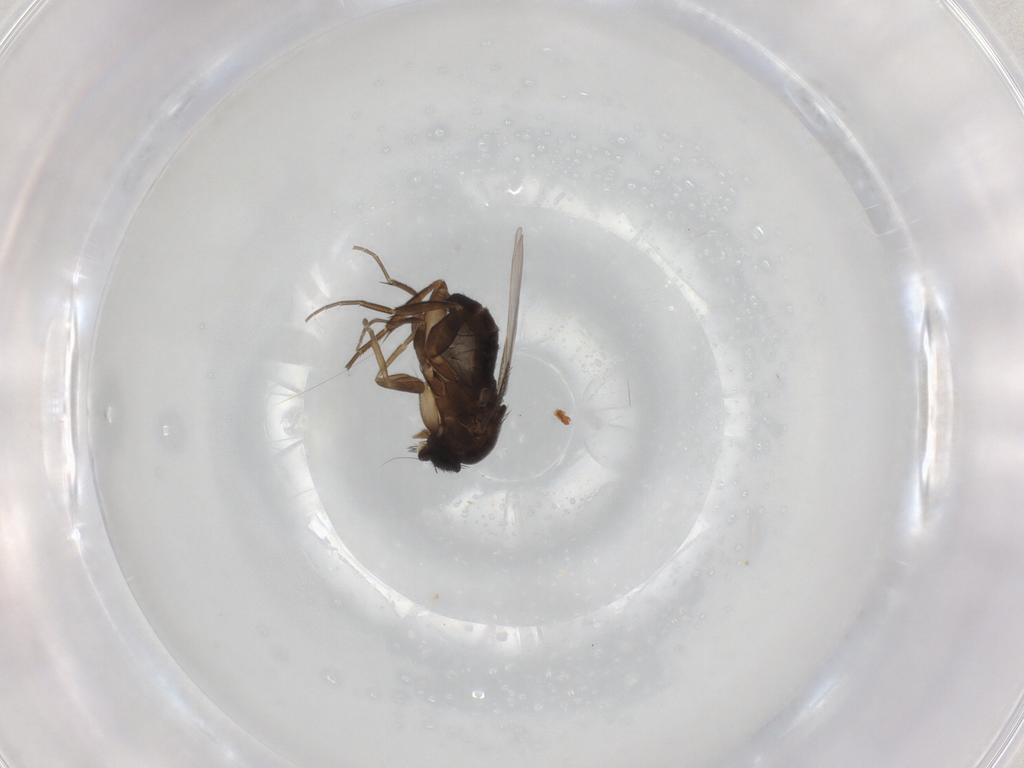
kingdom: Animalia
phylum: Arthropoda
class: Insecta
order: Diptera
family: Phoridae
